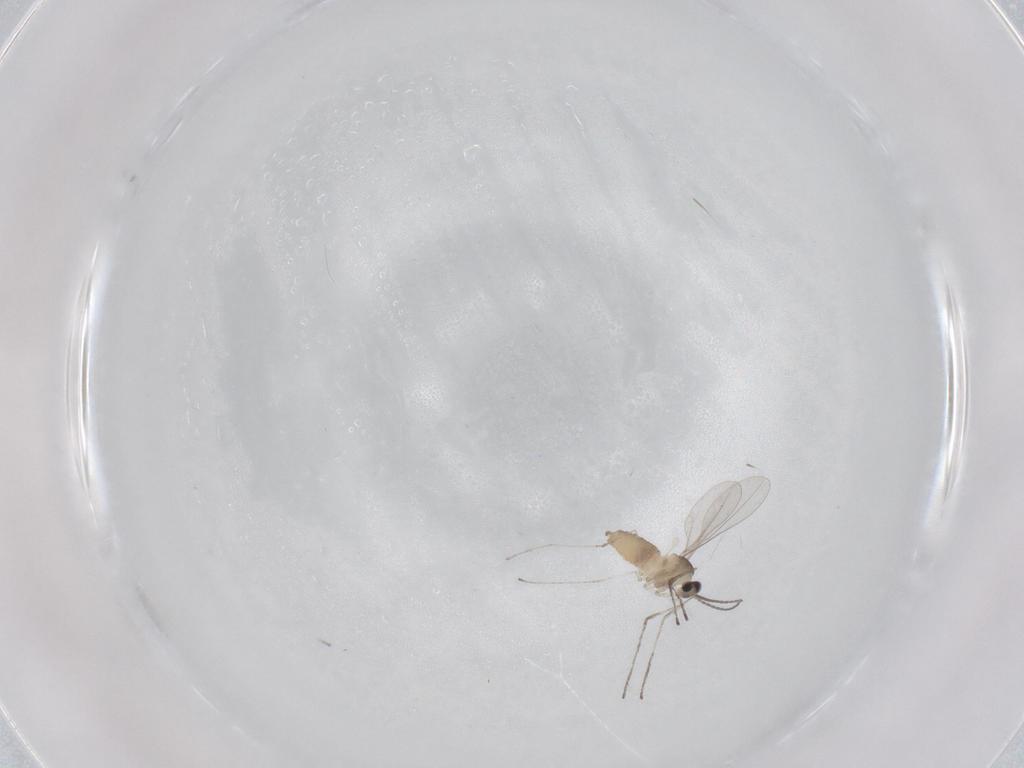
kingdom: Animalia
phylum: Arthropoda
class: Insecta
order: Diptera
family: Cecidomyiidae
